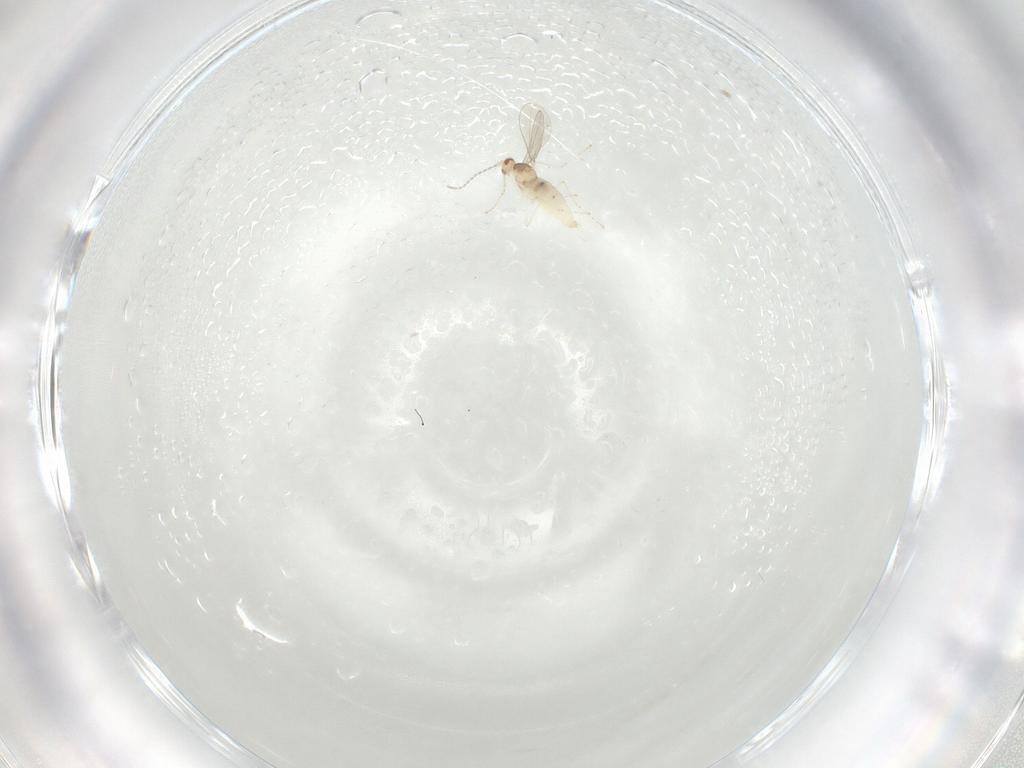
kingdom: Animalia
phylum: Arthropoda
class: Insecta
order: Diptera
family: Cecidomyiidae
